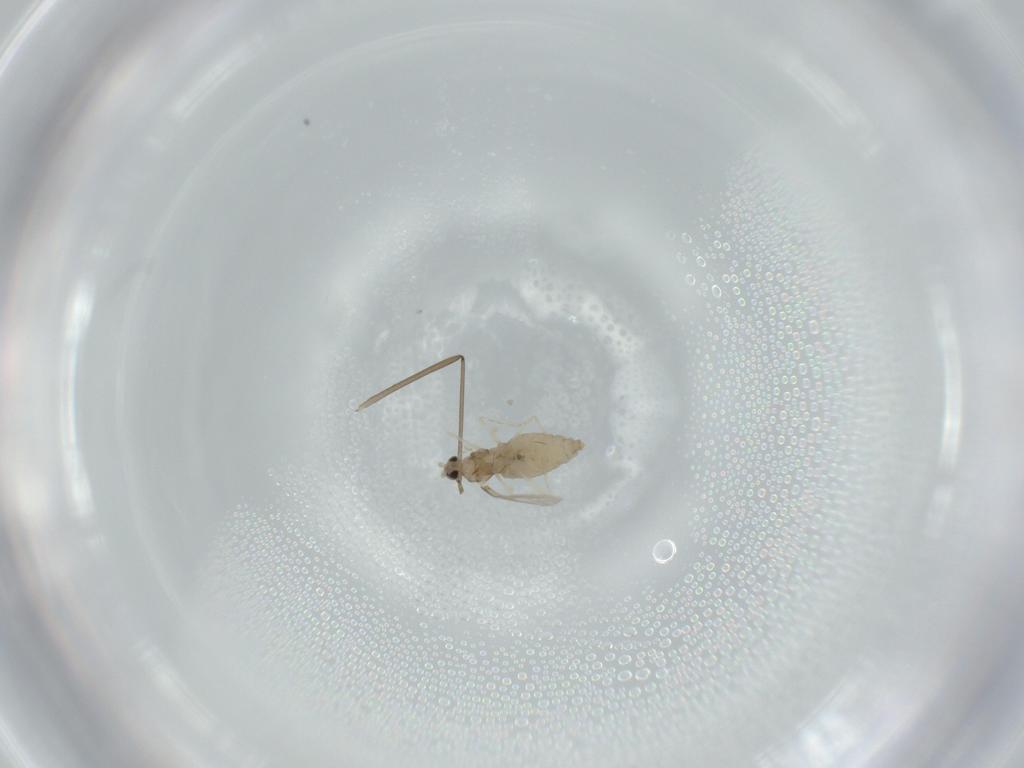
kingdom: Animalia
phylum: Arthropoda
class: Insecta
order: Diptera
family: Cecidomyiidae
